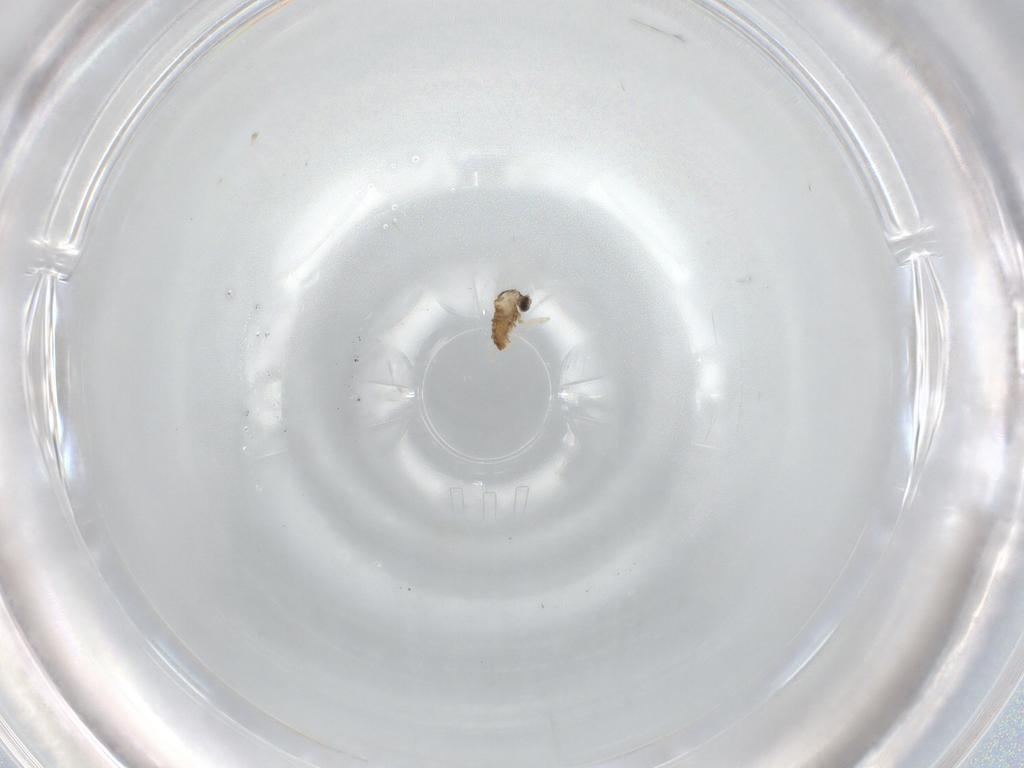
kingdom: Animalia
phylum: Arthropoda
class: Insecta
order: Diptera
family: Cecidomyiidae
